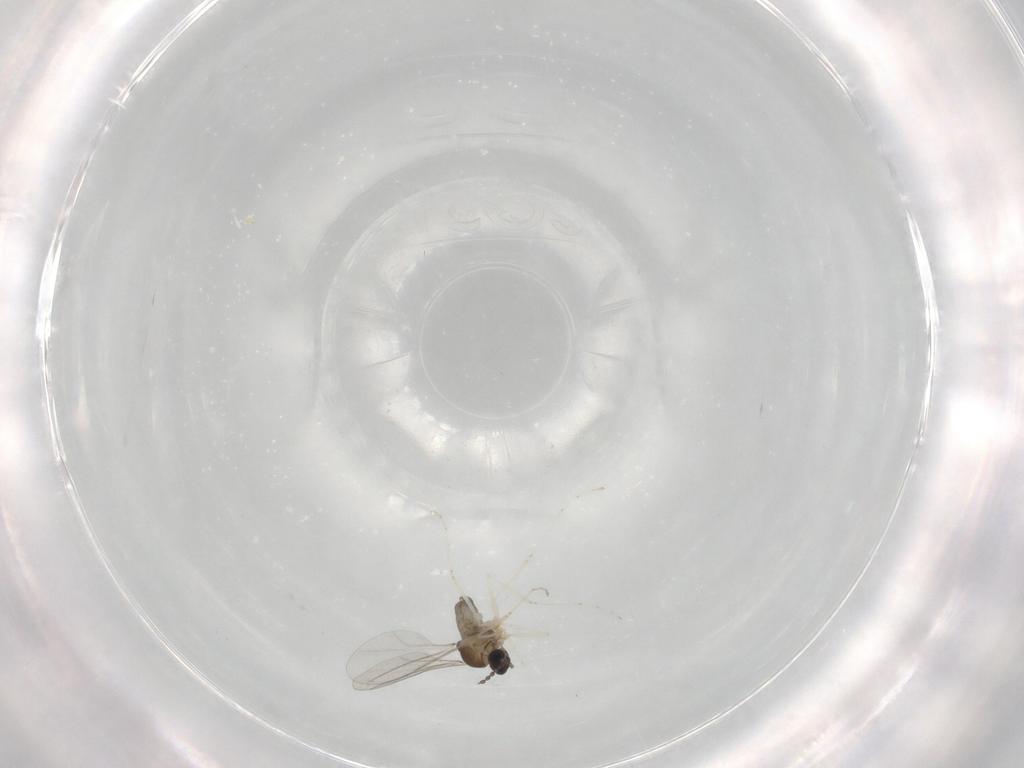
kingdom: Animalia
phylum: Arthropoda
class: Insecta
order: Diptera
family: Cecidomyiidae
